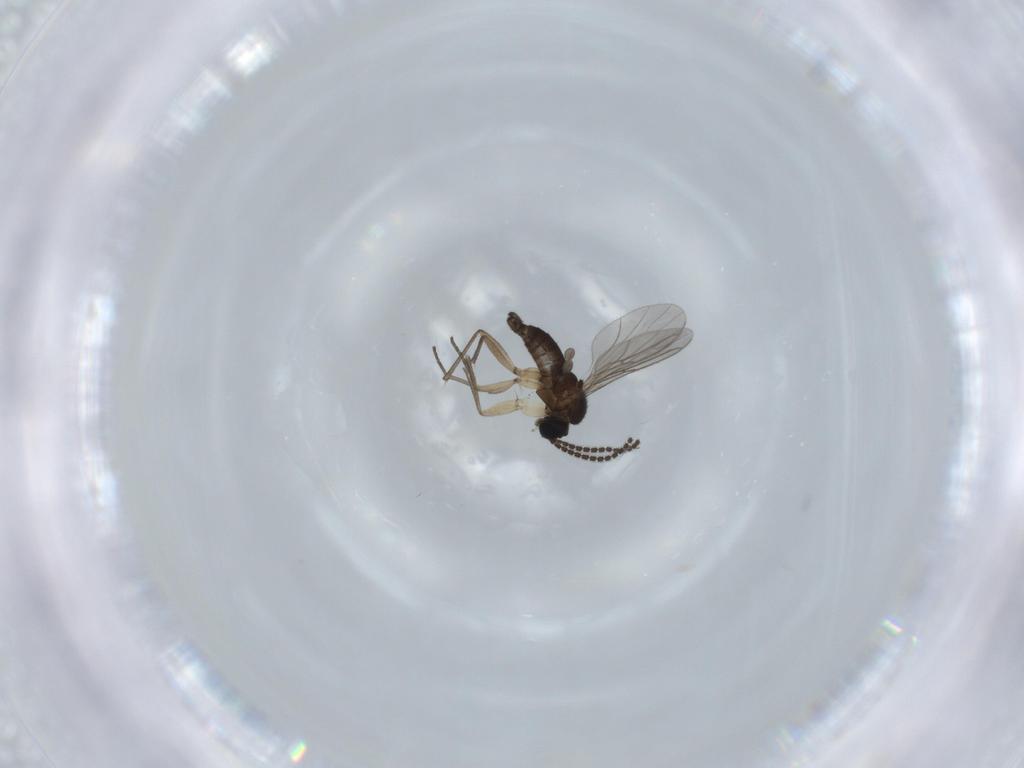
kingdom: Animalia
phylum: Arthropoda
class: Insecta
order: Diptera
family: Sciaridae
